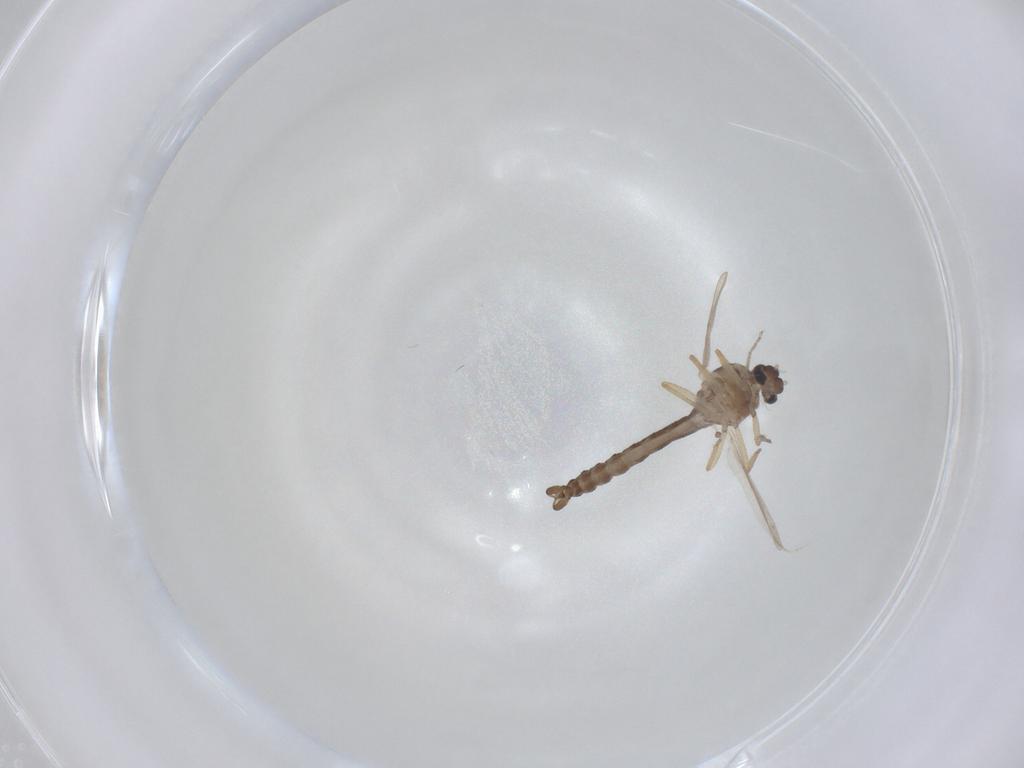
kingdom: Animalia
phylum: Arthropoda
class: Insecta
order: Diptera
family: Ceratopogonidae
